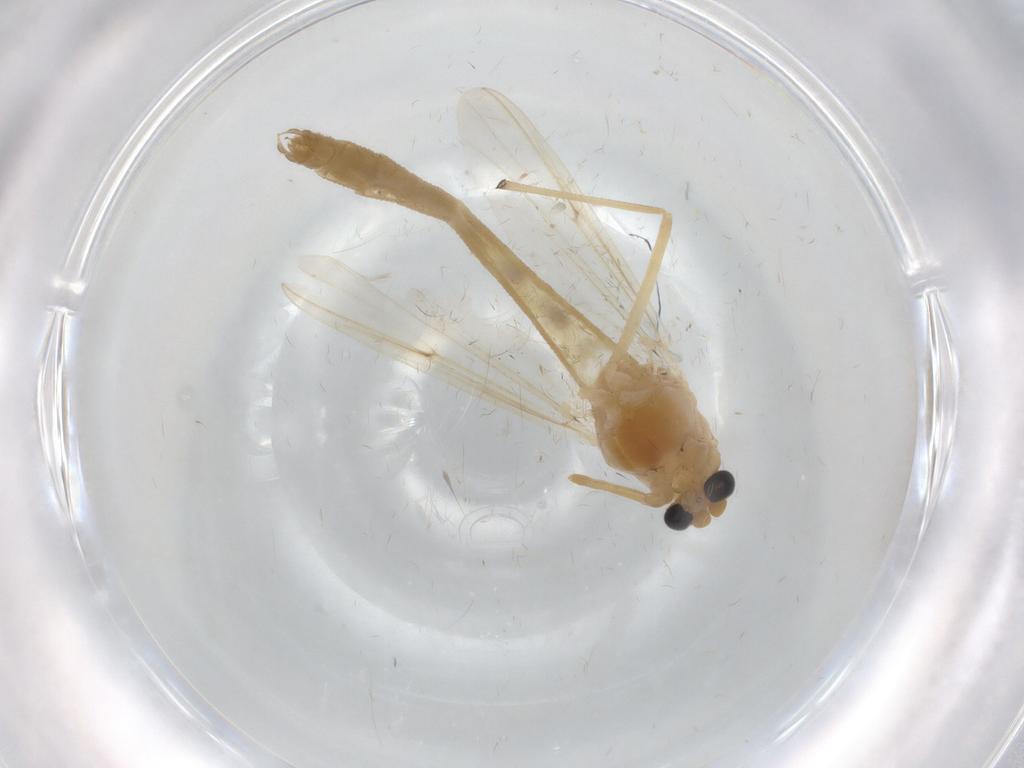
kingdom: Animalia
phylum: Arthropoda
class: Insecta
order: Diptera
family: Chironomidae
